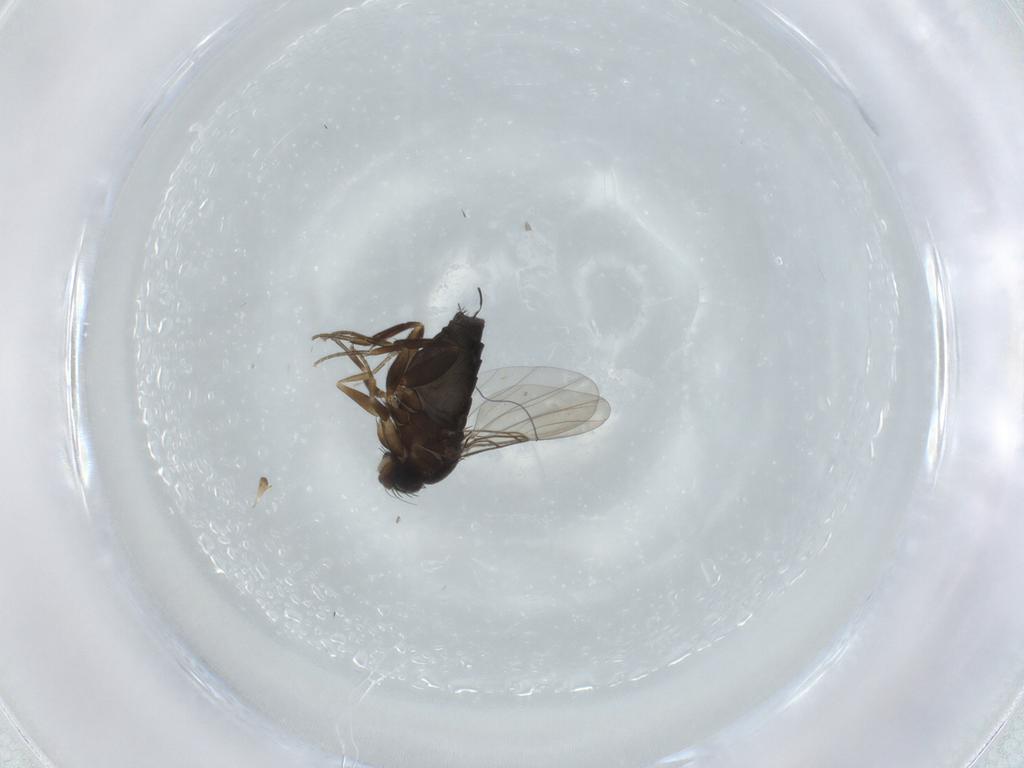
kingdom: Animalia
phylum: Arthropoda
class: Insecta
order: Diptera
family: Phoridae
